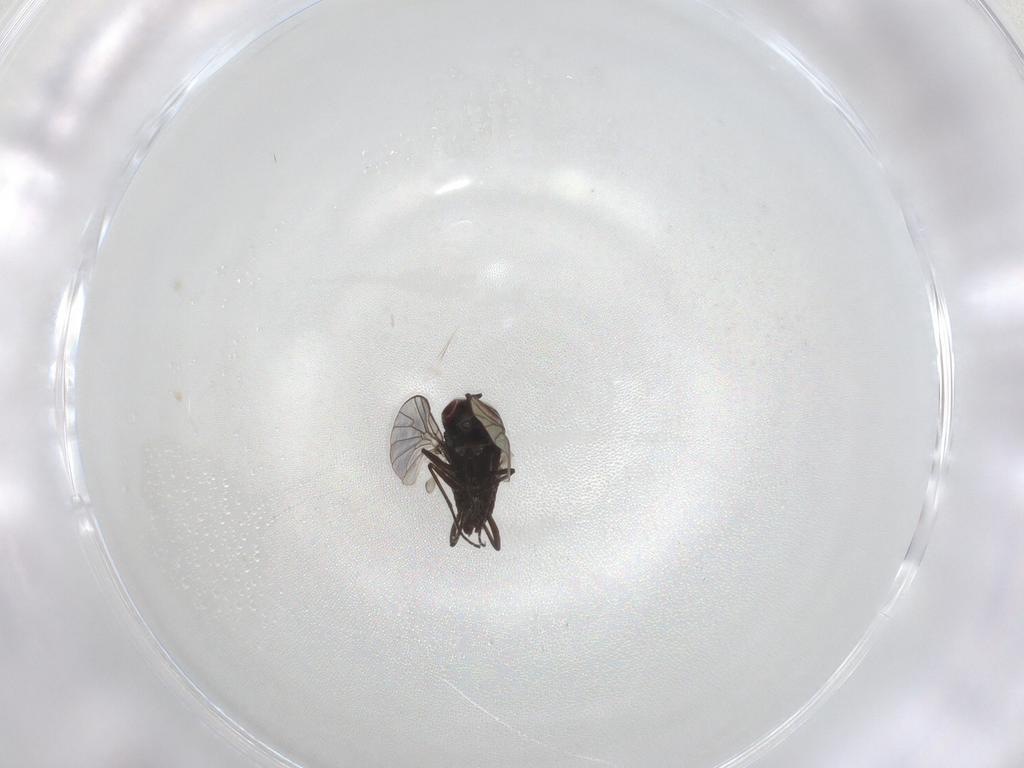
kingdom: Animalia
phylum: Arthropoda
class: Insecta
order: Diptera
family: Bombyliidae
